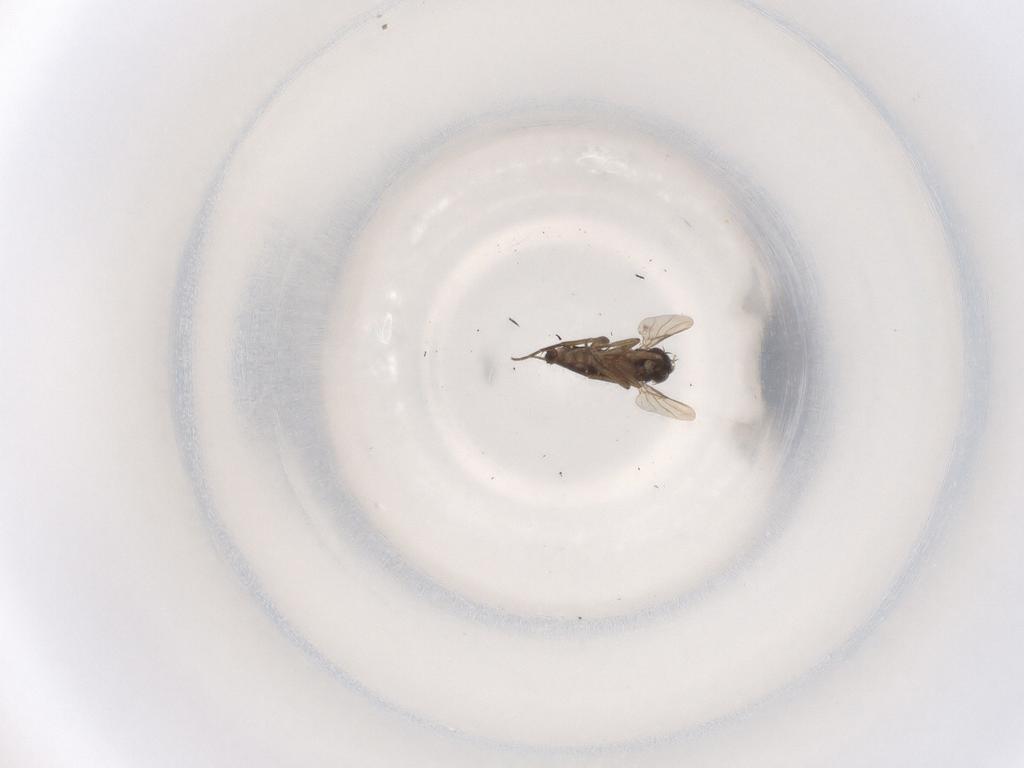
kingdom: Animalia
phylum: Arthropoda
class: Insecta
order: Diptera
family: Phoridae
